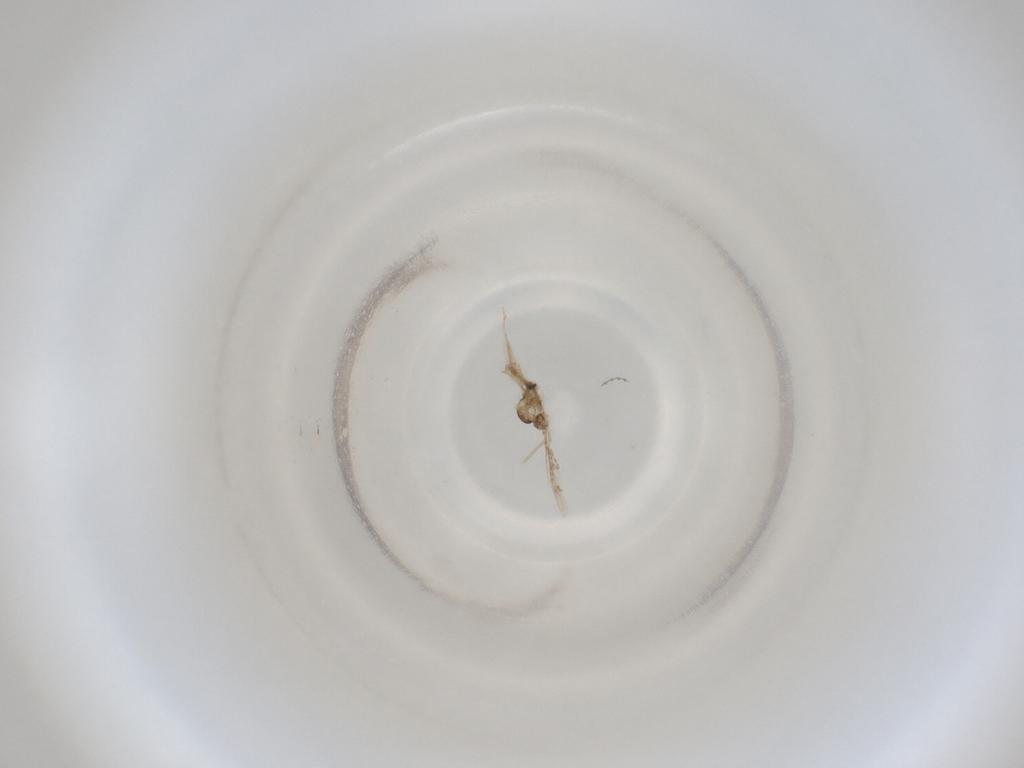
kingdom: Animalia
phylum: Arthropoda
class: Insecta
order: Diptera
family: Cecidomyiidae
